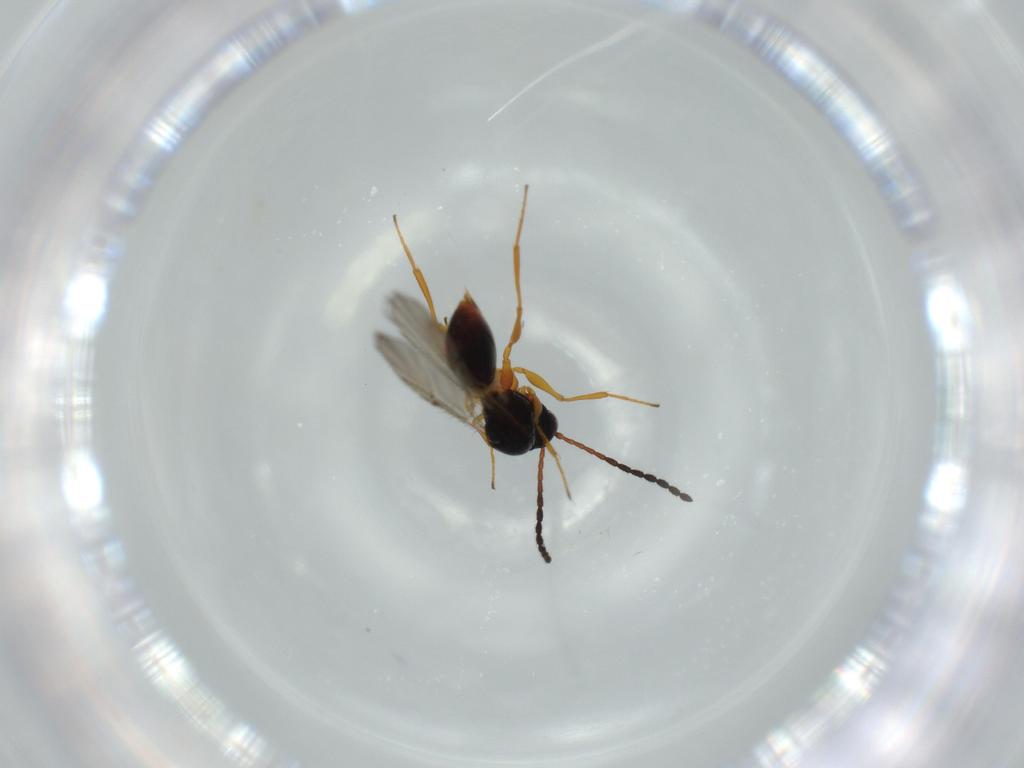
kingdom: Animalia
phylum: Arthropoda
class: Insecta
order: Hymenoptera
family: Figitidae
